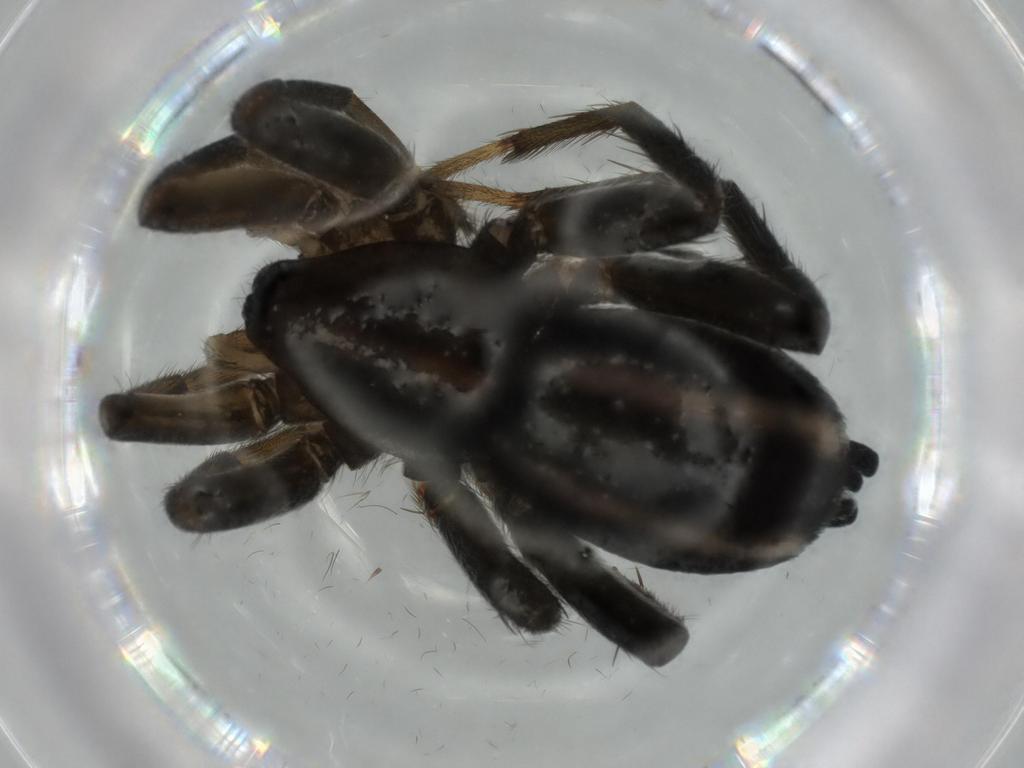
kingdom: Animalia
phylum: Arthropoda
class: Arachnida
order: Araneae
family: Gnaphosidae
